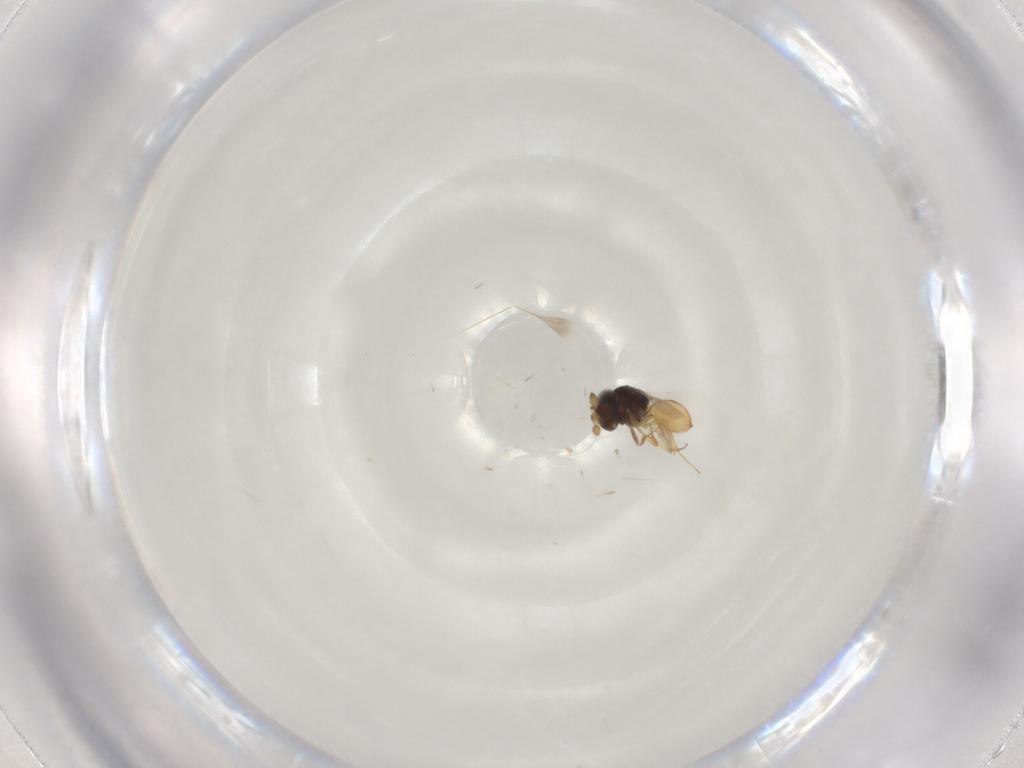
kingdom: Animalia
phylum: Arthropoda
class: Insecta
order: Hymenoptera
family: Scelionidae
